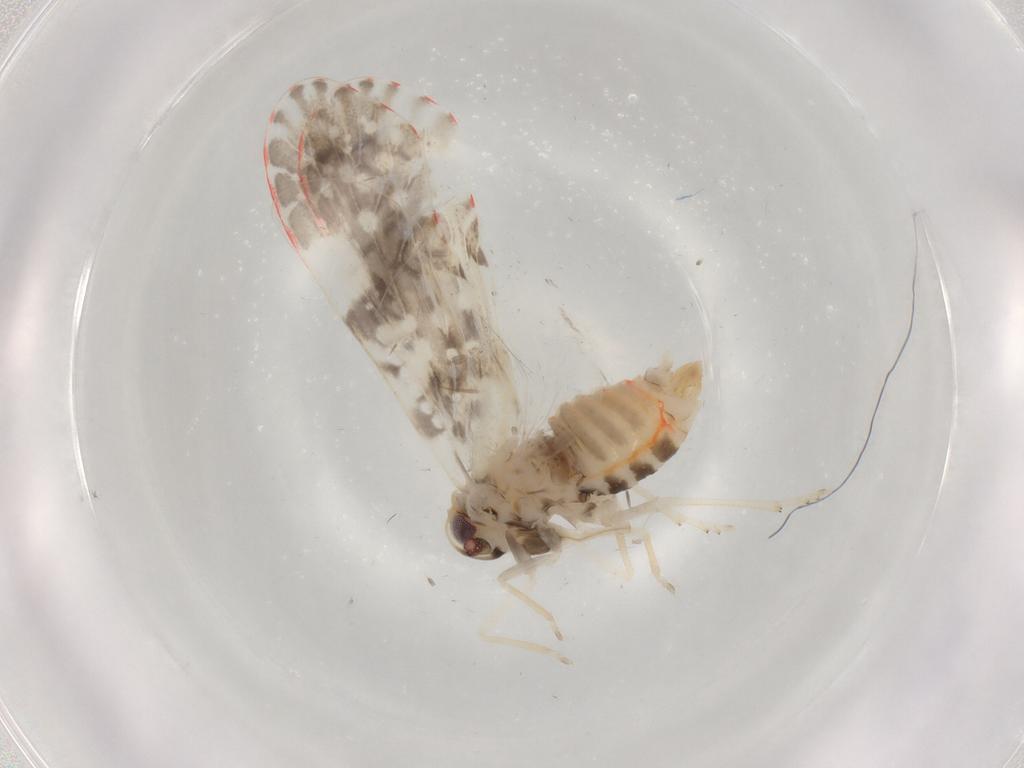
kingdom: Animalia
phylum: Arthropoda
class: Insecta
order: Hemiptera
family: Derbidae
